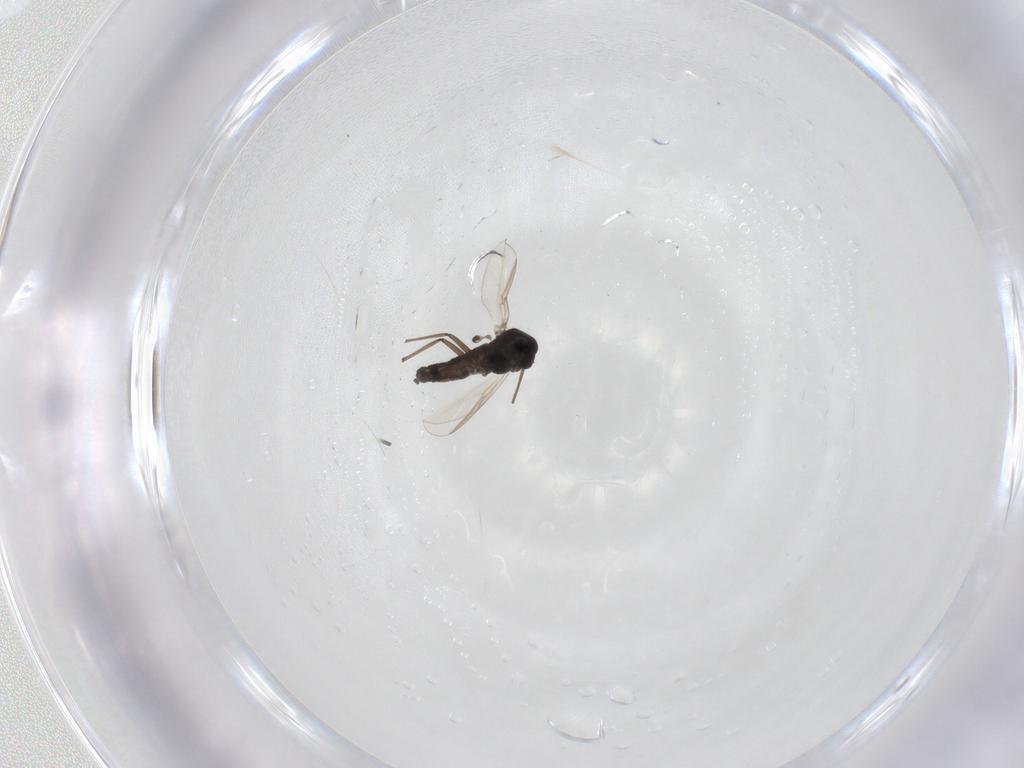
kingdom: Animalia
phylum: Arthropoda
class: Insecta
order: Diptera
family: Chironomidae
